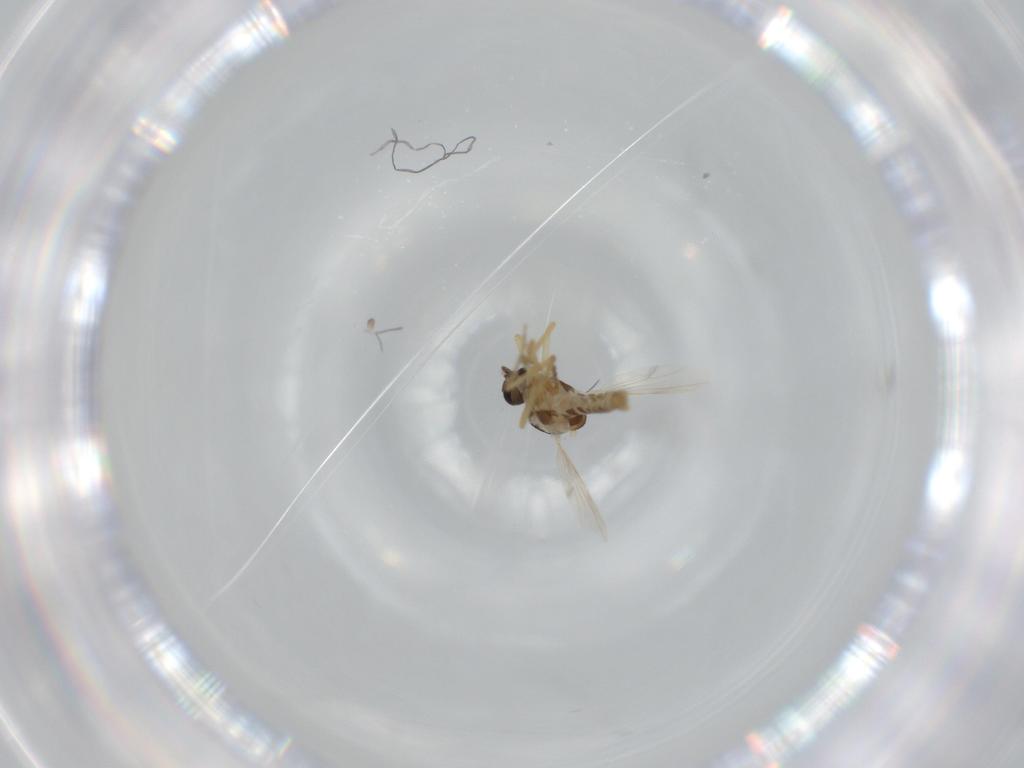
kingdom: Animalia
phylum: Arthropoda
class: Insecta
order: Diptera
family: Ceratopogonidae
